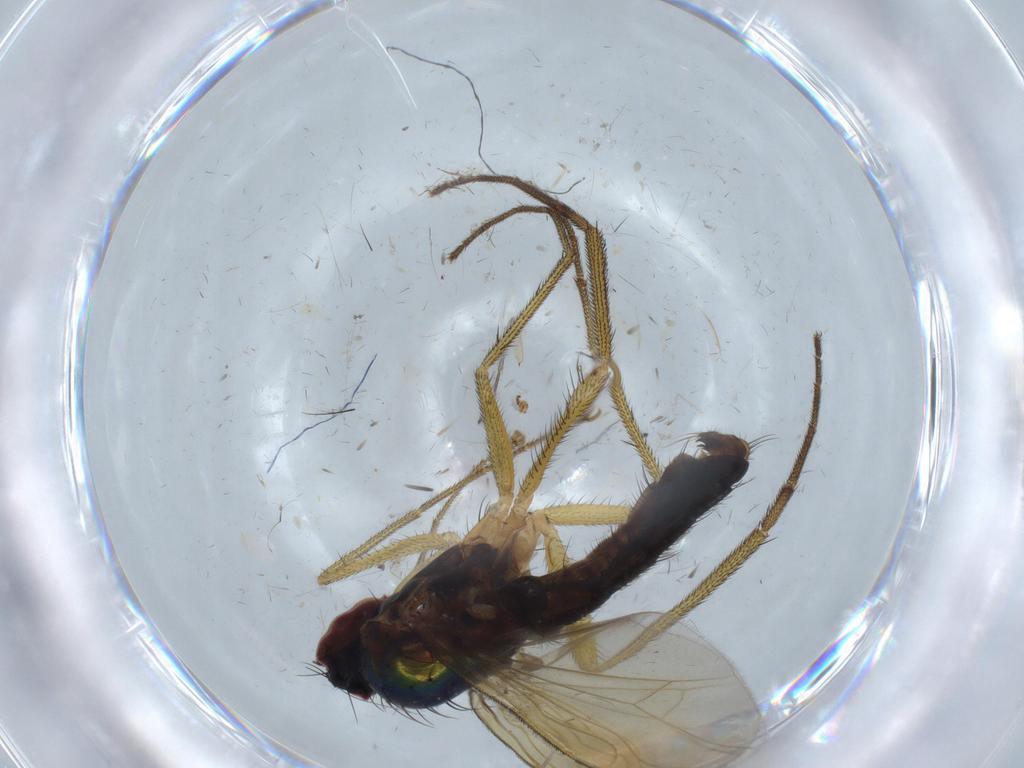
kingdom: Animalia
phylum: Arthropoda
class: Insecta
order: Diptera
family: Dolichopodidae
